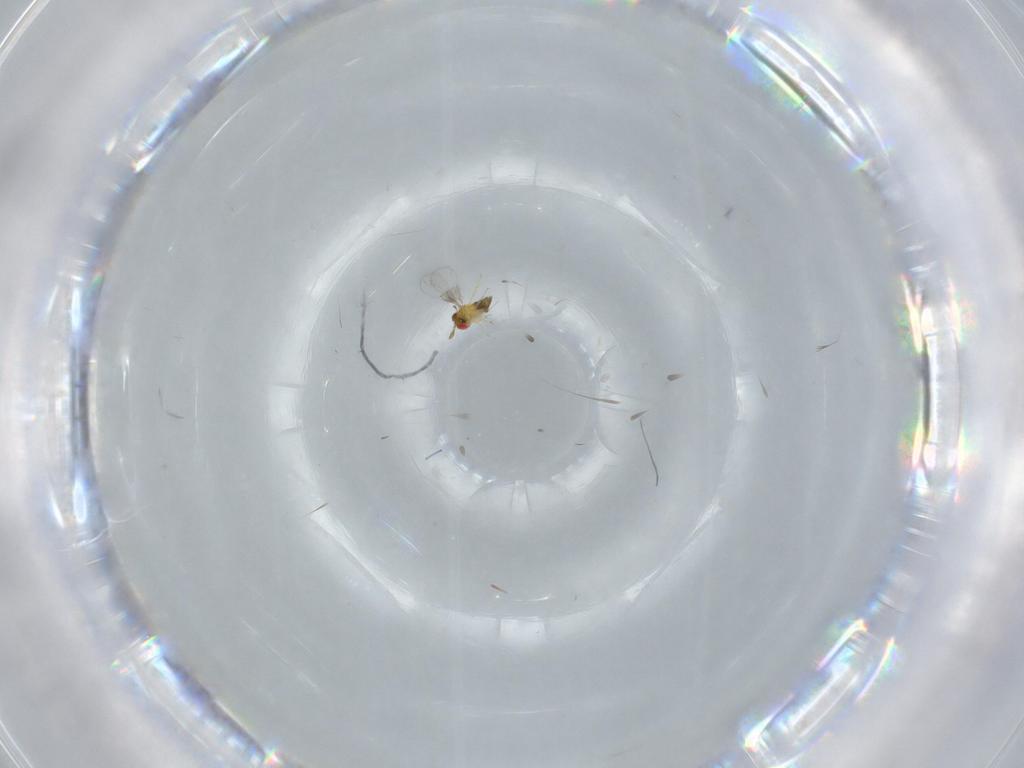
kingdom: Animalia
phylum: Arthropoda
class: Insecta
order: Hymenoptera
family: Trichogrammatidae
